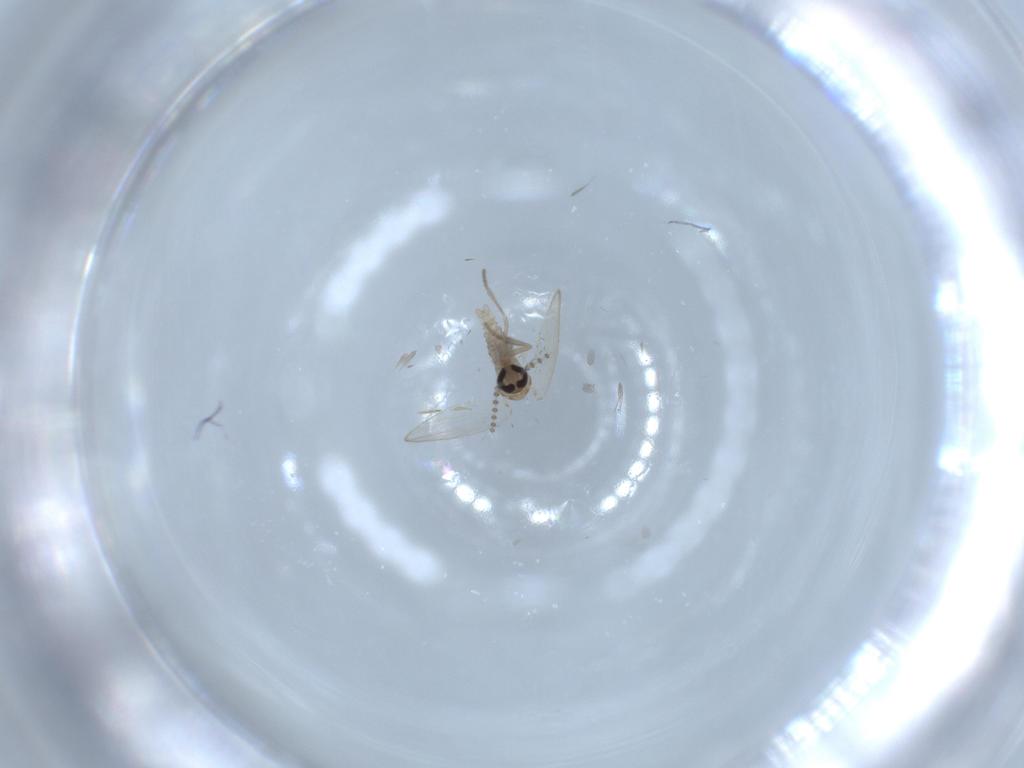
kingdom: Animalia
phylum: Arthropoda
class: Insecta
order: Diptera
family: Psychodidae
